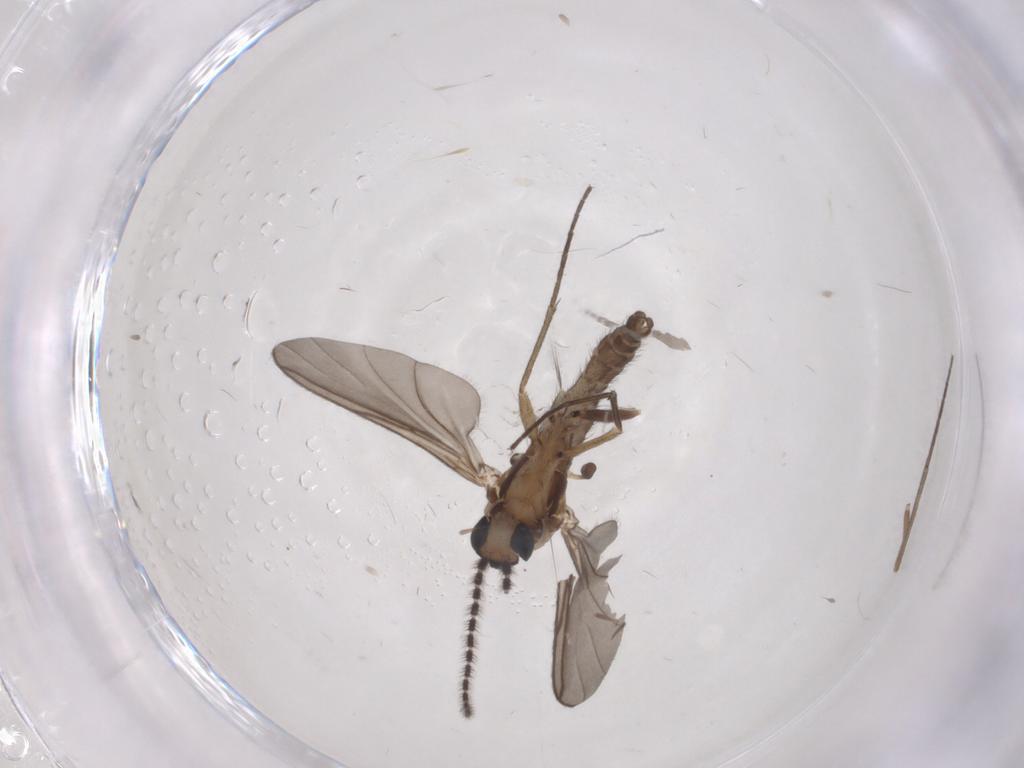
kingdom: Animalia
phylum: Arthropoda
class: Insecta
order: Diptera
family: Sciaridae
